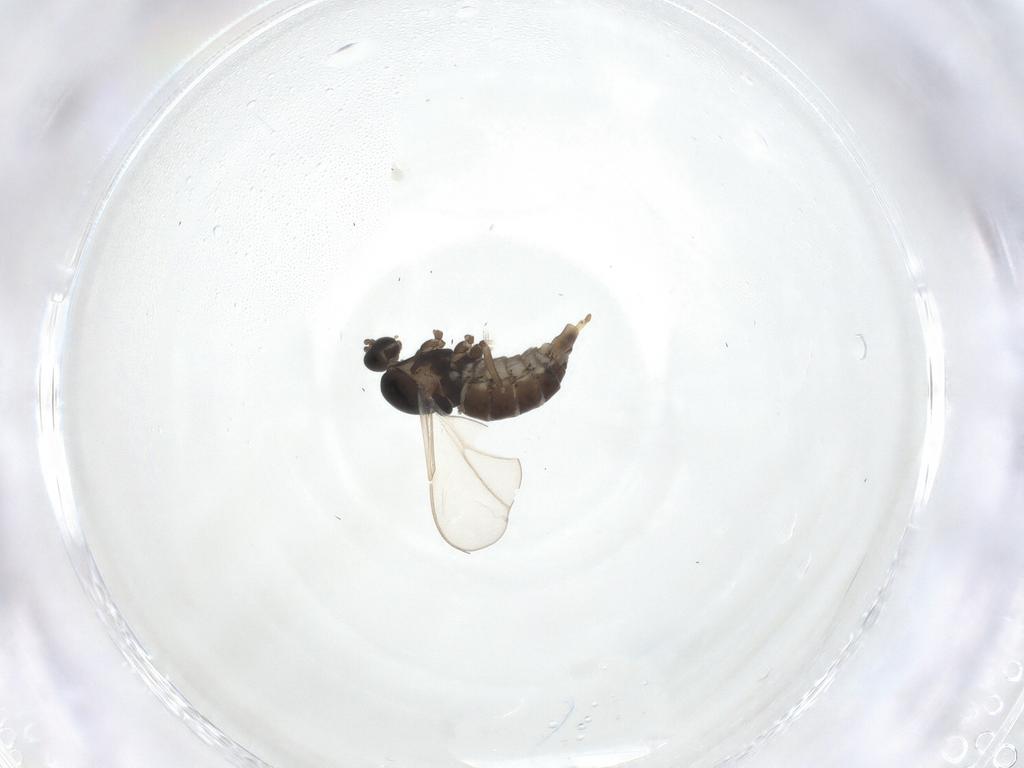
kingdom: Animalia
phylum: Arthropoda
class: Insecta
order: Diptera
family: Cecidomyiidae
